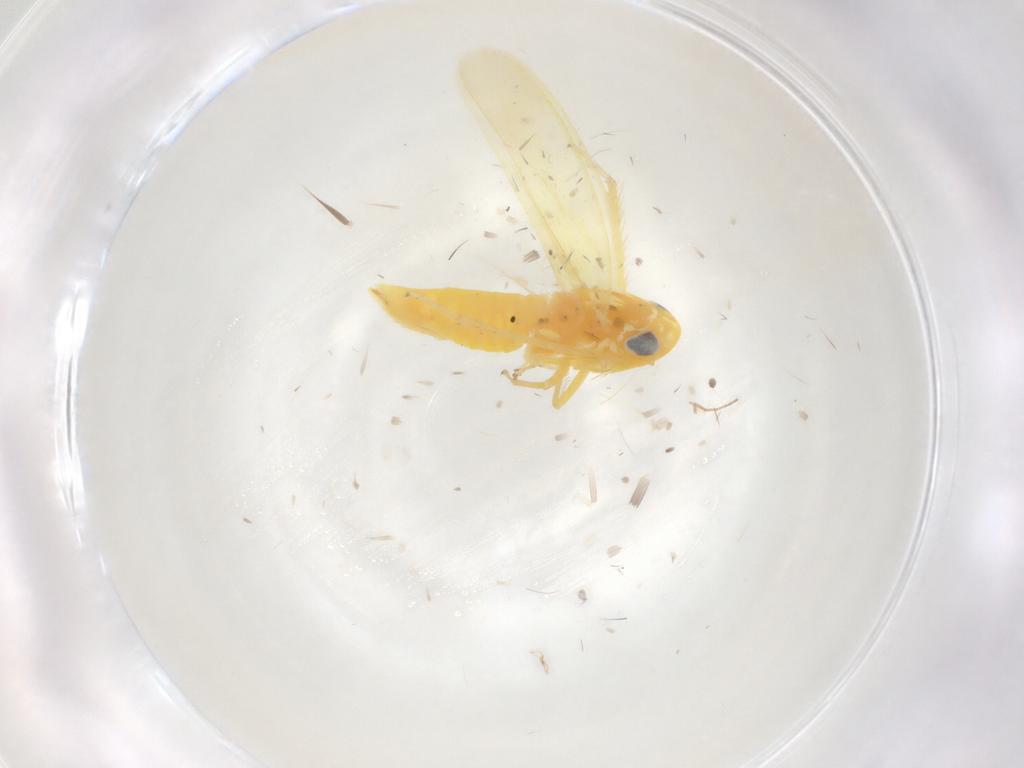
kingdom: Animalia
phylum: Arthropoda
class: Insecta
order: Hemiptera
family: Cicadellidae
